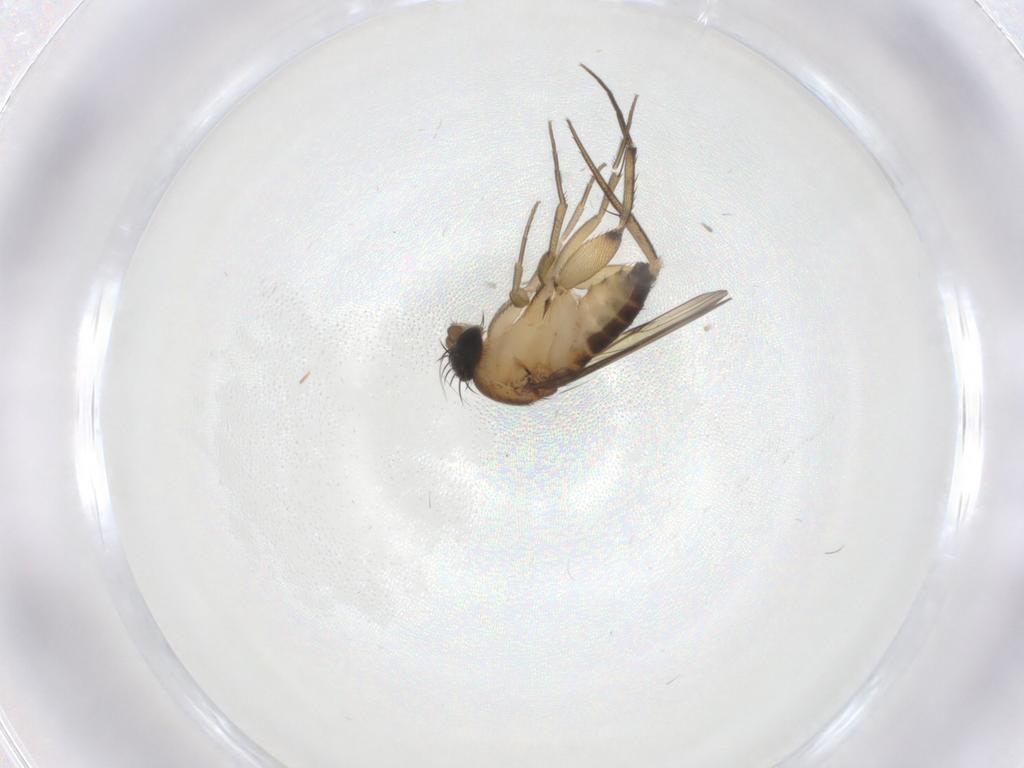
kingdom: Animalia
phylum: Arthropoda
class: Insecta
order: Diptera
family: Phoridae
